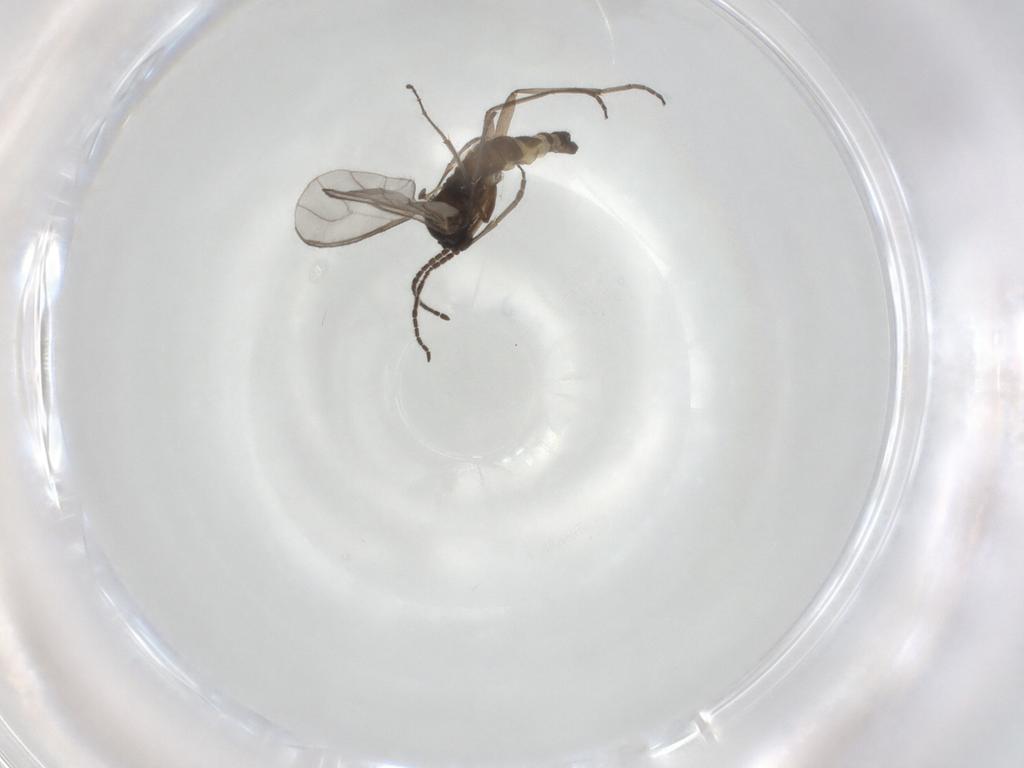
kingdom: Animalia
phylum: Arthropoda
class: Insecta
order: Diptera
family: Sciaridae
